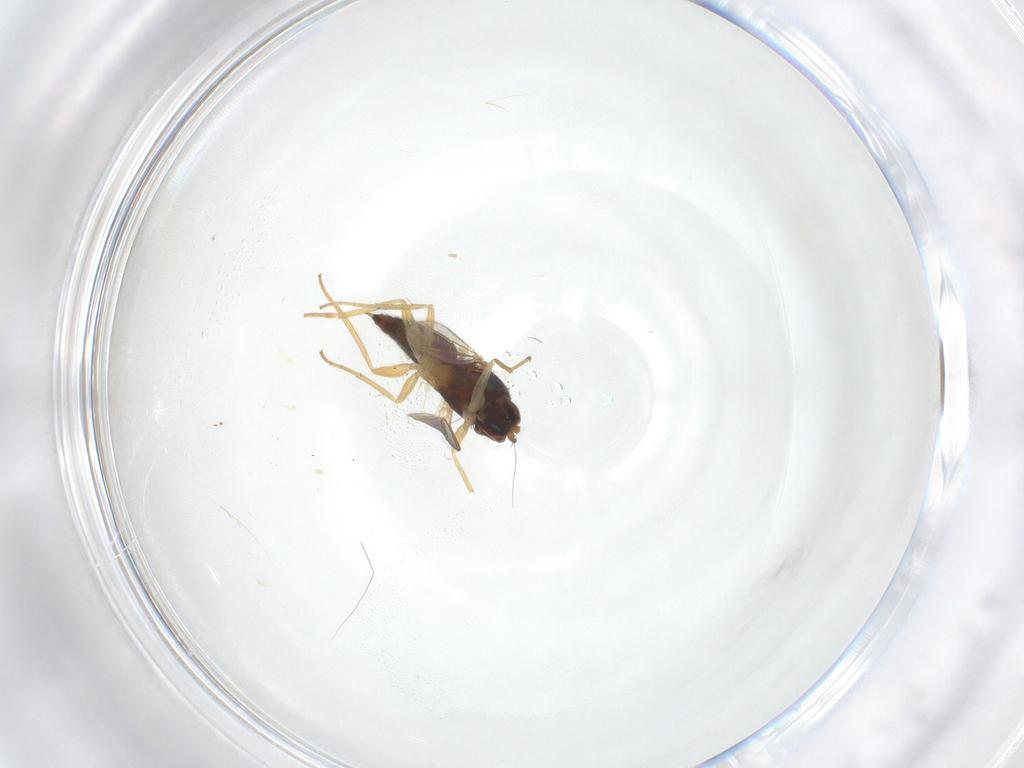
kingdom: Animalia
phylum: Arthropoda
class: Insecta
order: Diptera
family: Dolichopodidae
